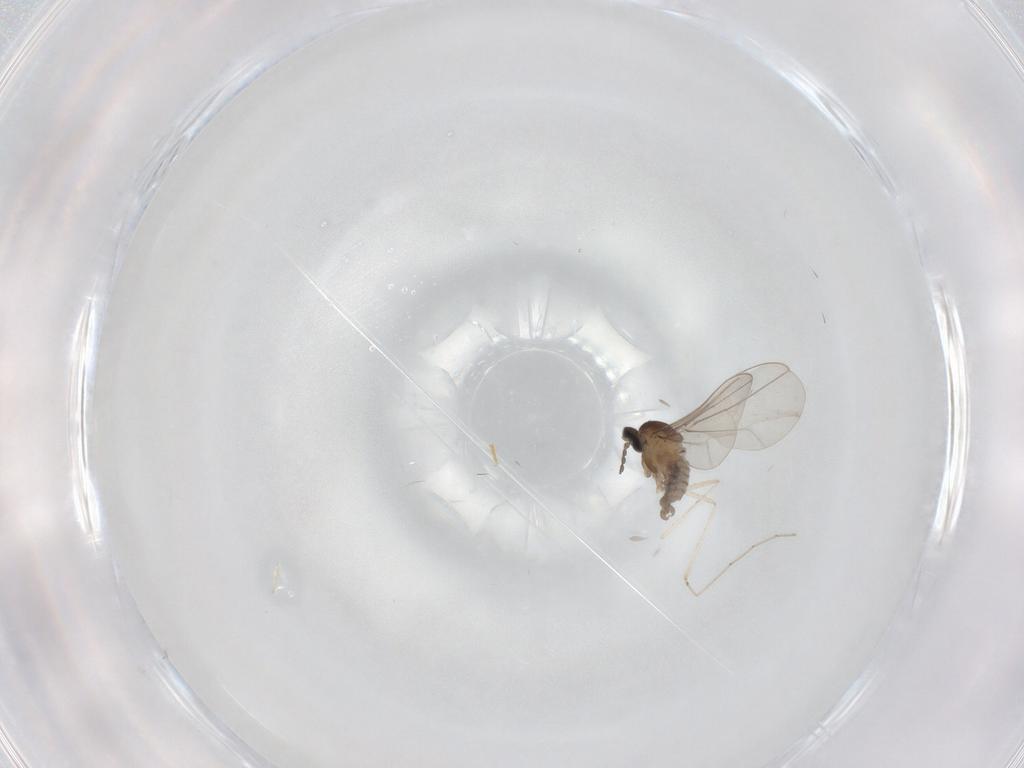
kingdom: Animalia
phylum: Arthropoda
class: Insecta
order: Diptera
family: Cecidomyiidae
